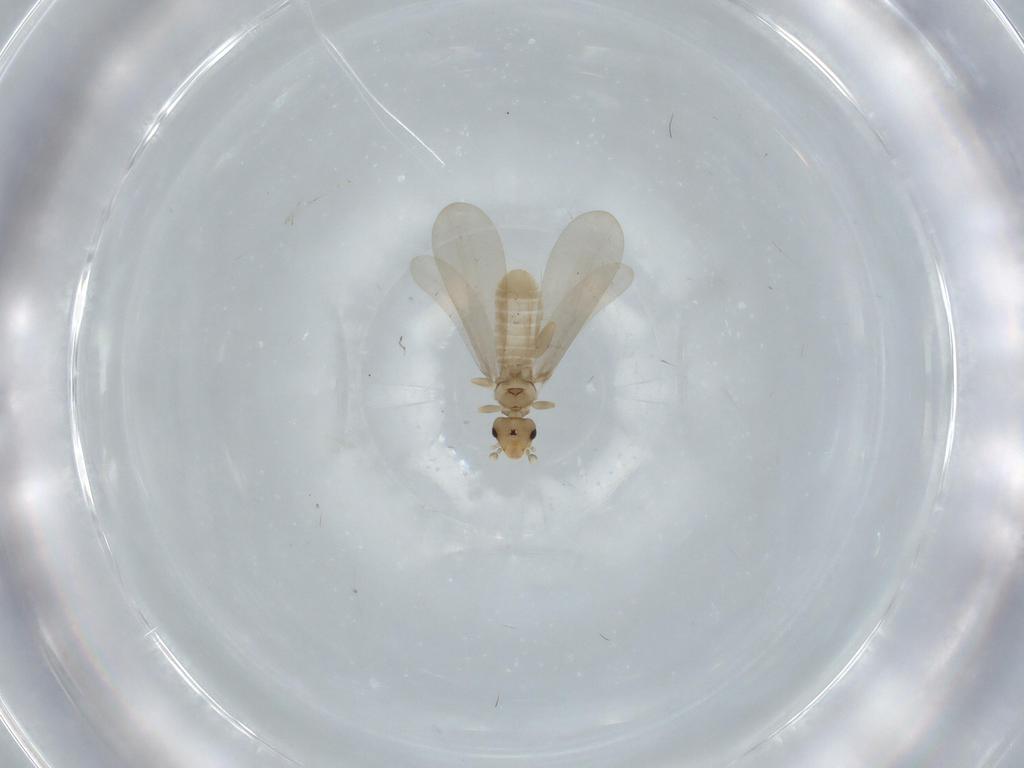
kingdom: Animalia
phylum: Arthropoda
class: Insecta
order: Psocodea
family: Liposcelididae
